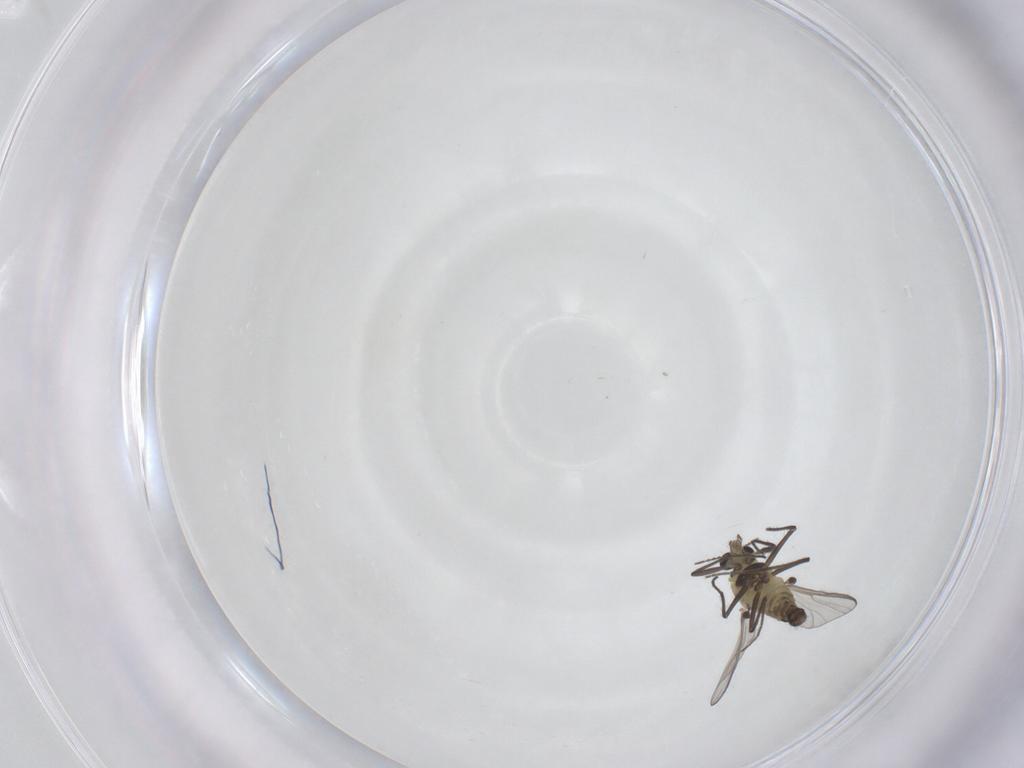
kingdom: Animalia
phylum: Arthropoda
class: Insecta
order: Diptera
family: Chironomidae
